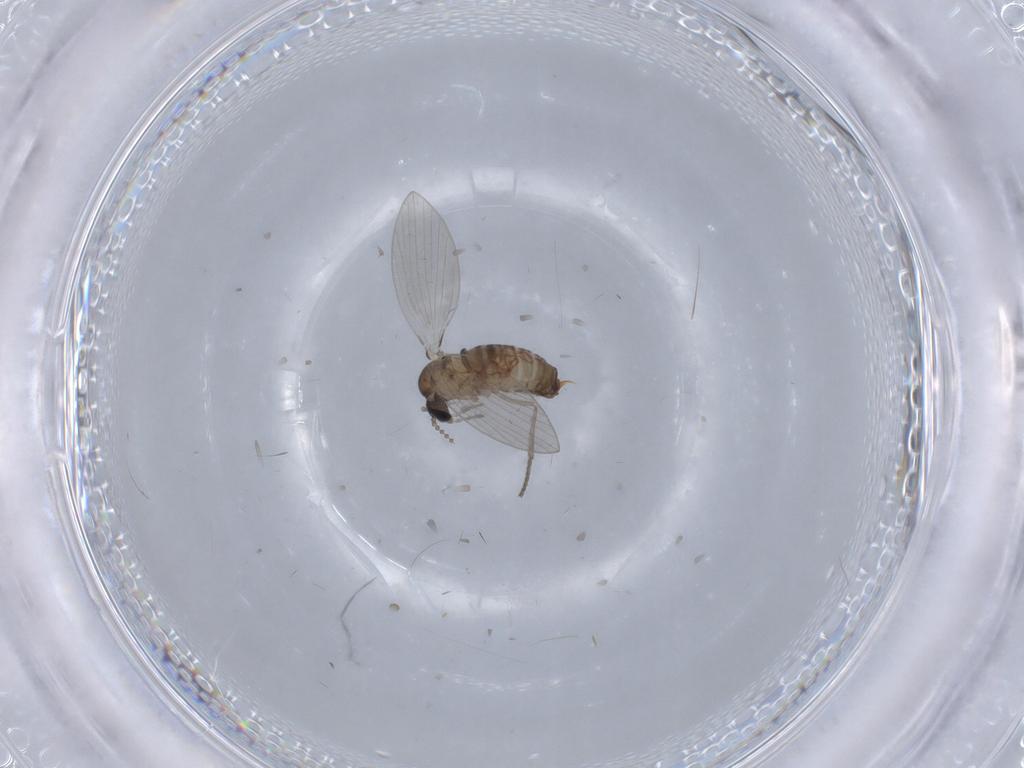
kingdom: Animalia
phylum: Arthropoda
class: Insecta
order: Diptera
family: Psychodidae
